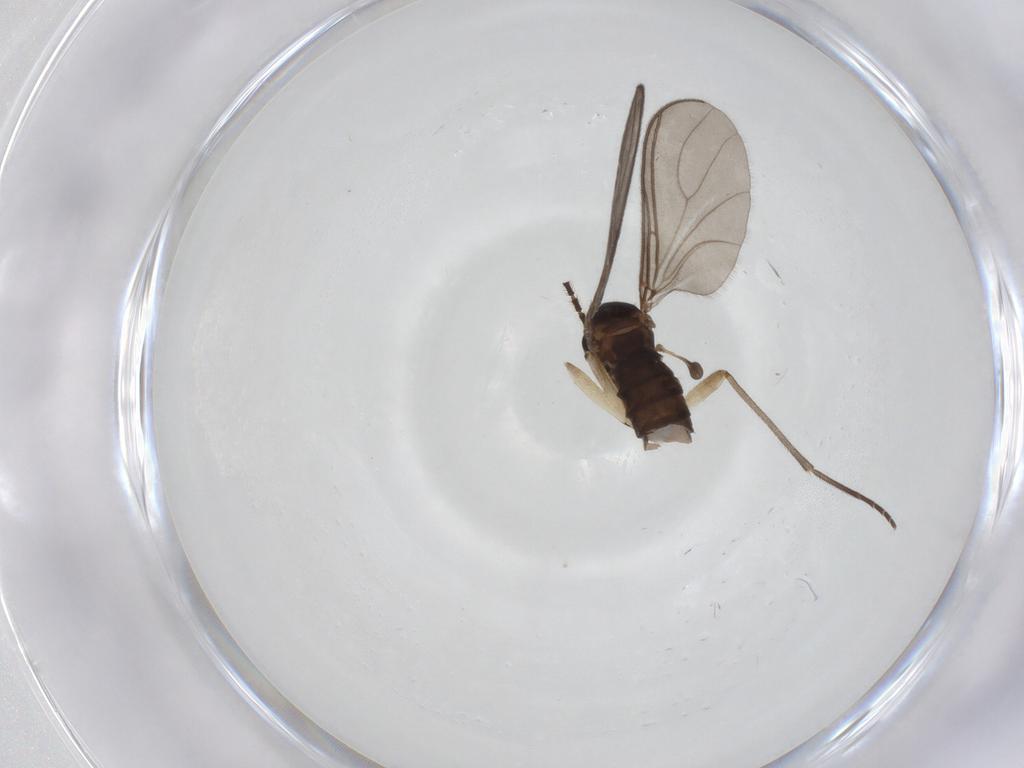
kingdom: Animalia
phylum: Arthropoda
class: Insecta
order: Diptera
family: Sciaridae
